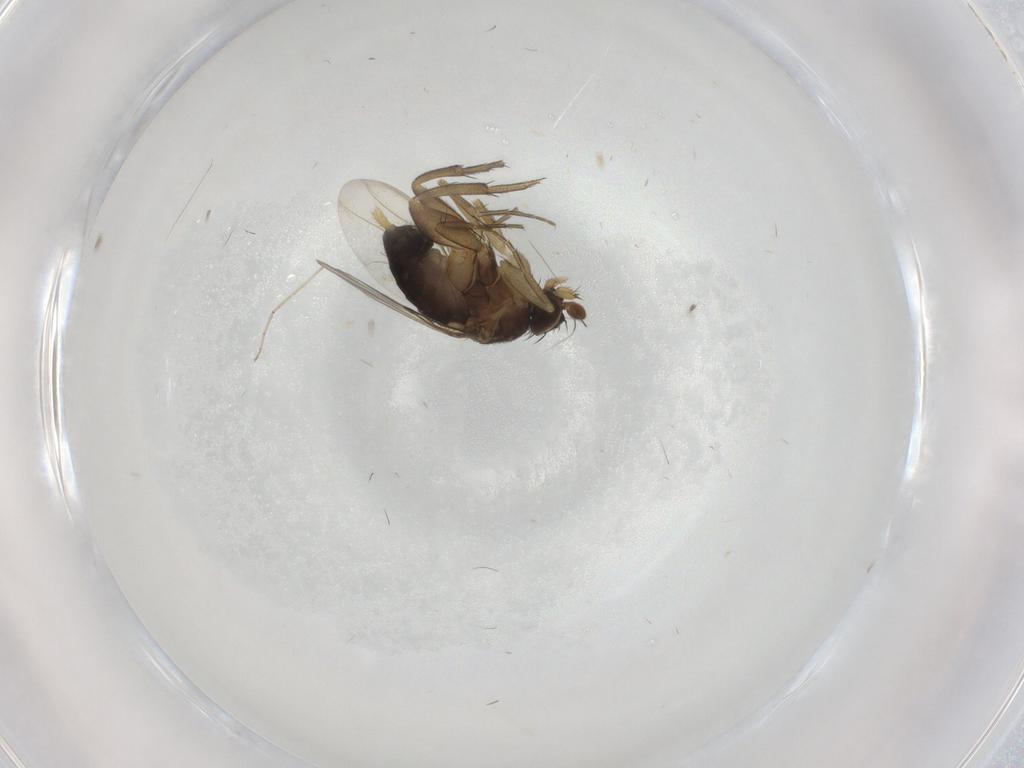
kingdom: Animalia
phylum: Arthropoda
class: Insecta
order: Diptera
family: Phoridae
